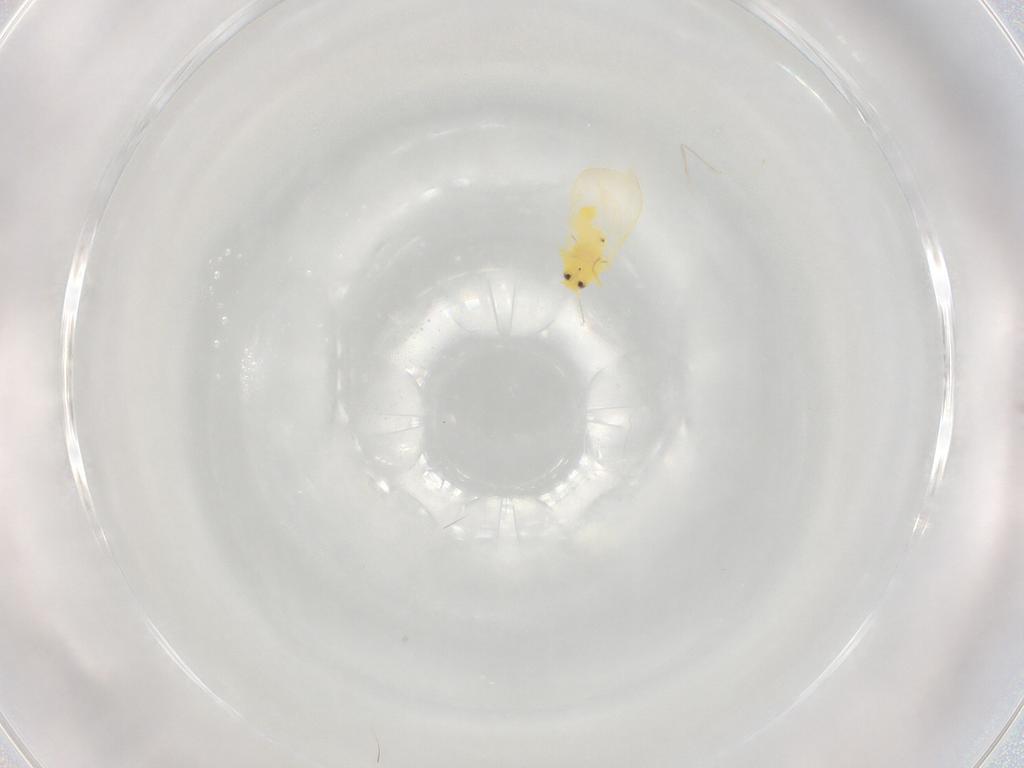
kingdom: Animalia
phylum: Arthropoda
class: Insecta
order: Hemiptera
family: Aleyrodidae
